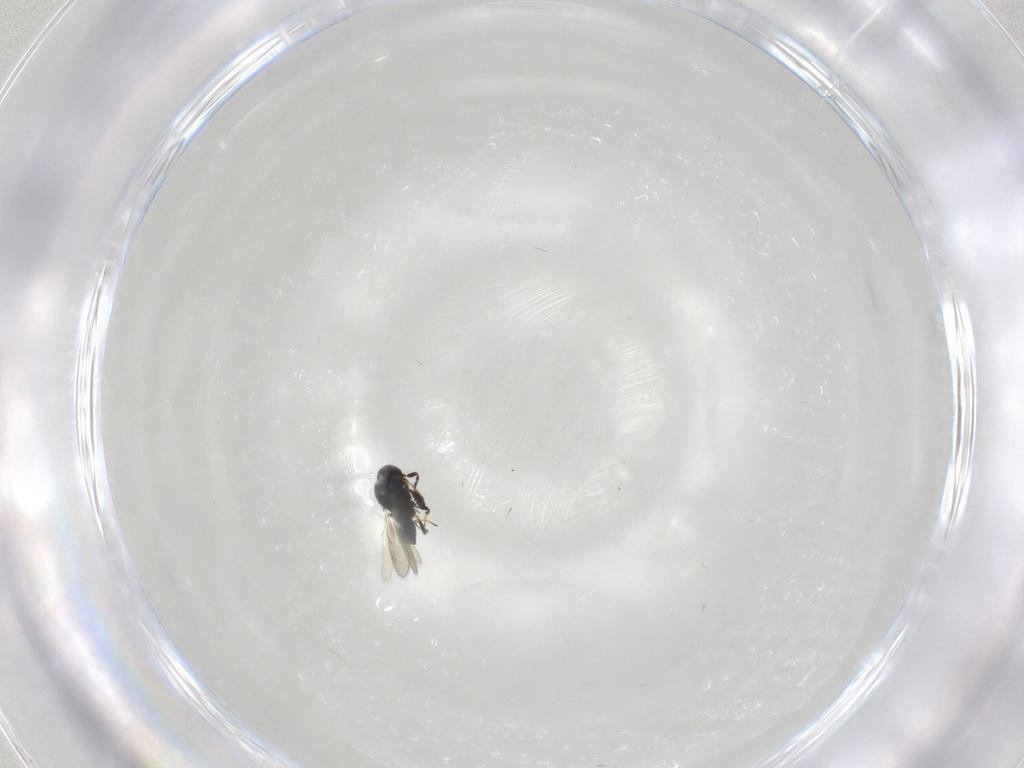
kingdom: Animalia
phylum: Arthropoda
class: Insecta
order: Hymenoptera
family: Scelionidae
